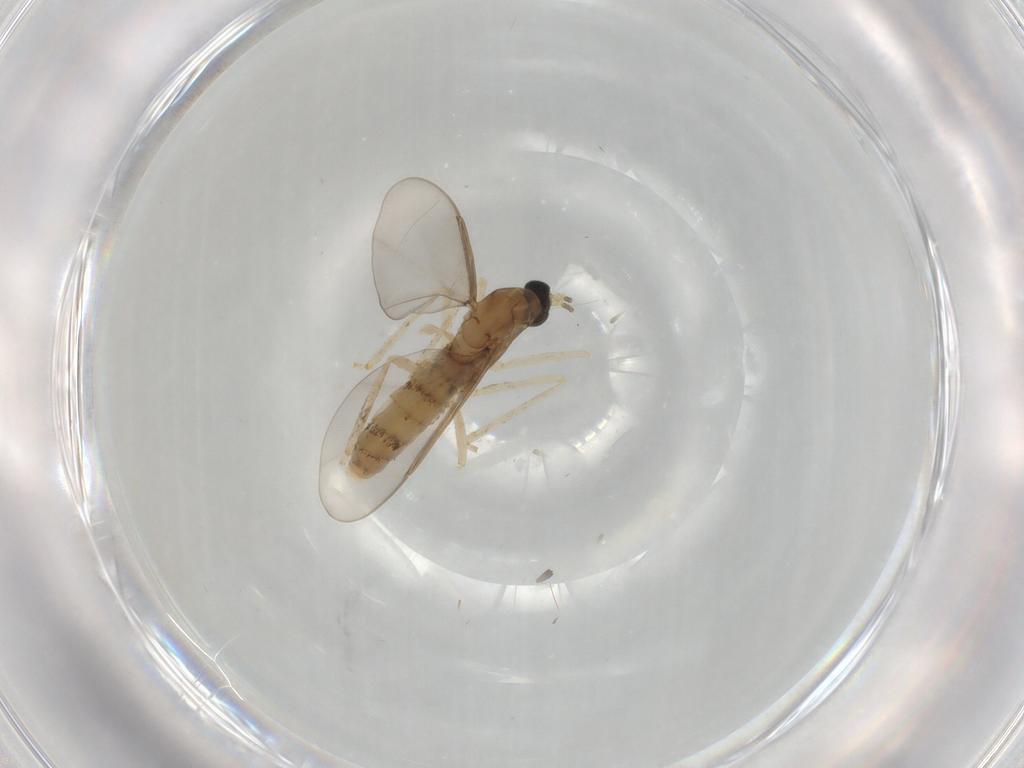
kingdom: Animalia
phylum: Arthropoda
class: Insecta
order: Diptera
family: Cecidomyiidae
